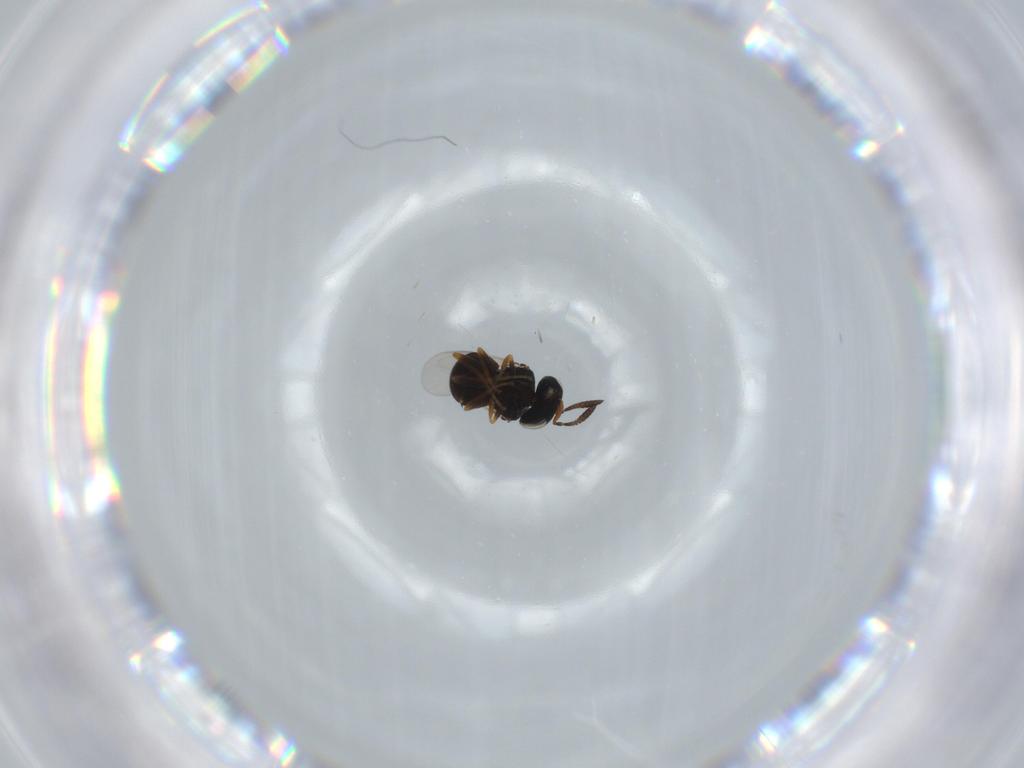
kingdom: Animalia
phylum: Arthropoda
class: Insecta
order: Hymenoptera
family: Scelionidae
